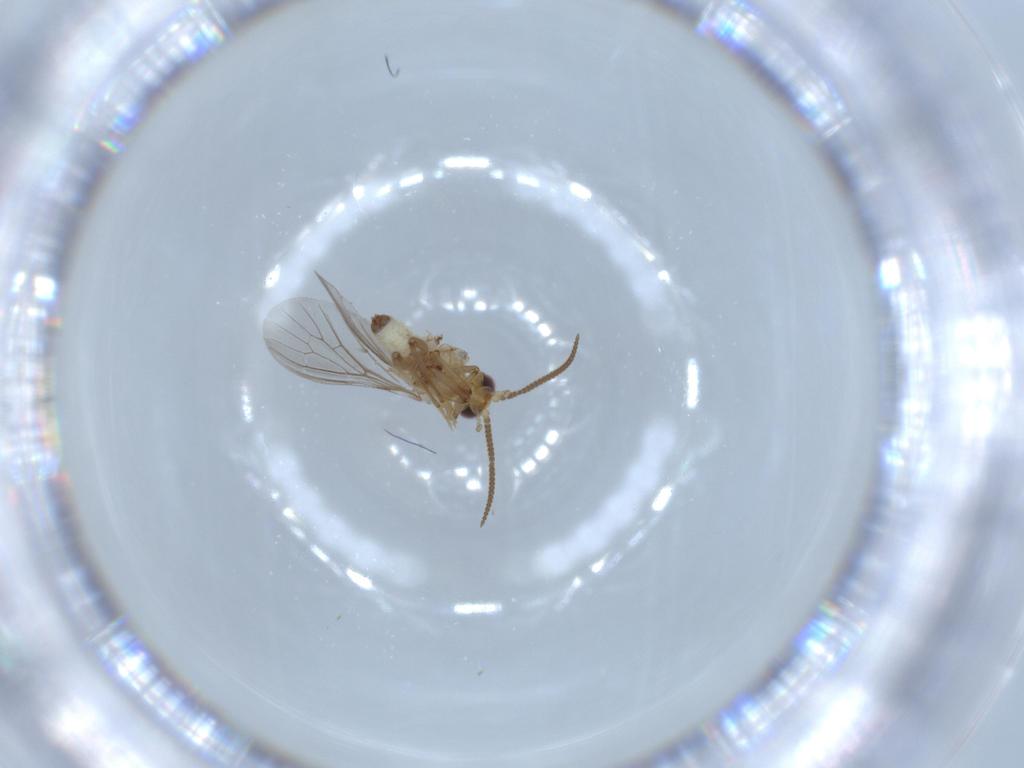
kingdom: Animalia
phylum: Arthropoda
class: Insecta
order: Neuroptera
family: Coniopterygidae
